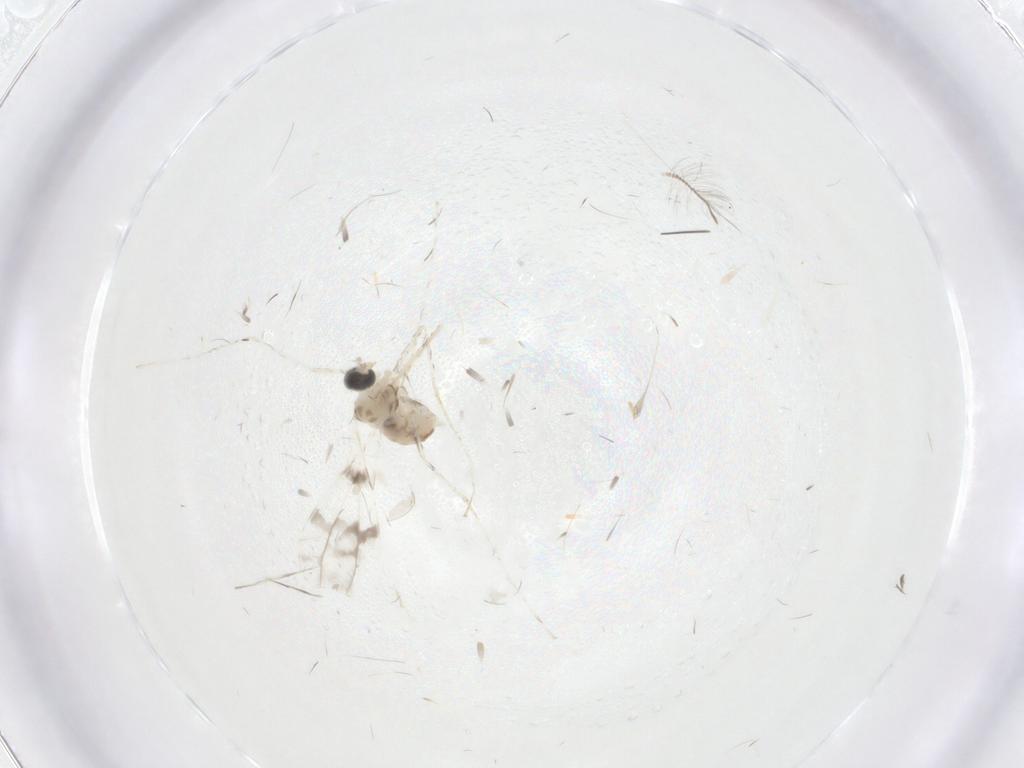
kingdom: Animalia
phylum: Arthropoda
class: Insecta
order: Diptera
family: Cecidomyiidae
